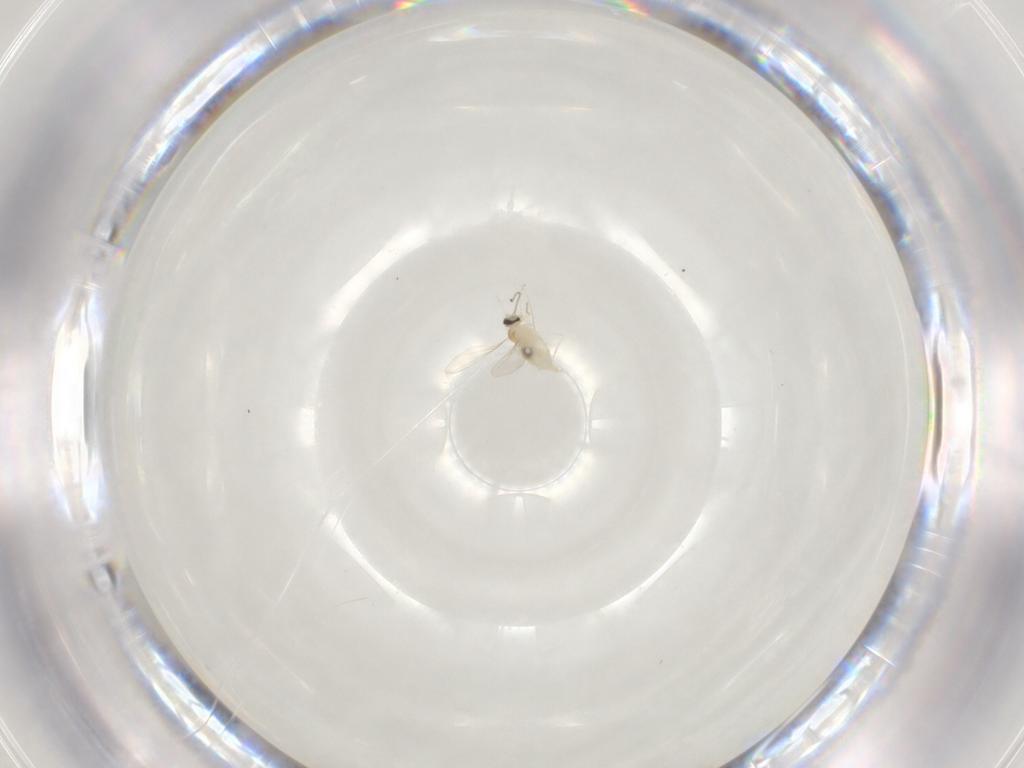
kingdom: Animalia
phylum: Arthropoda
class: Insecta
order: Diptera
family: Cecidomyiidae
